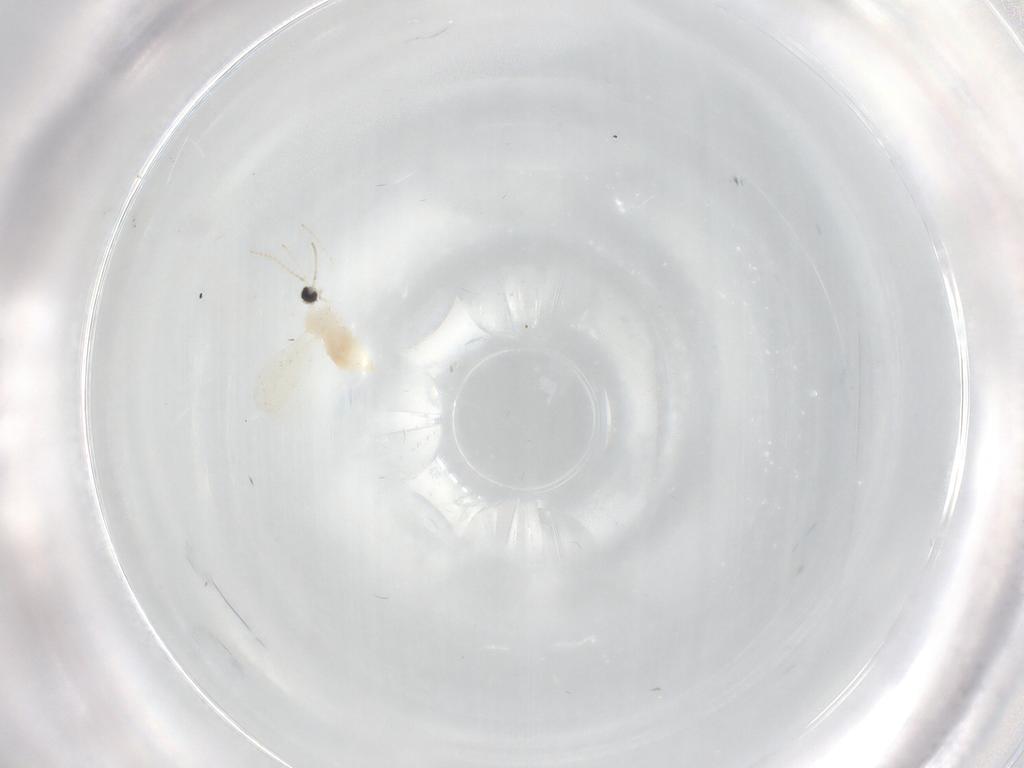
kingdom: Animalia
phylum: Arthropoda
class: Insecta
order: Diptera
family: Cecidomyiidae
